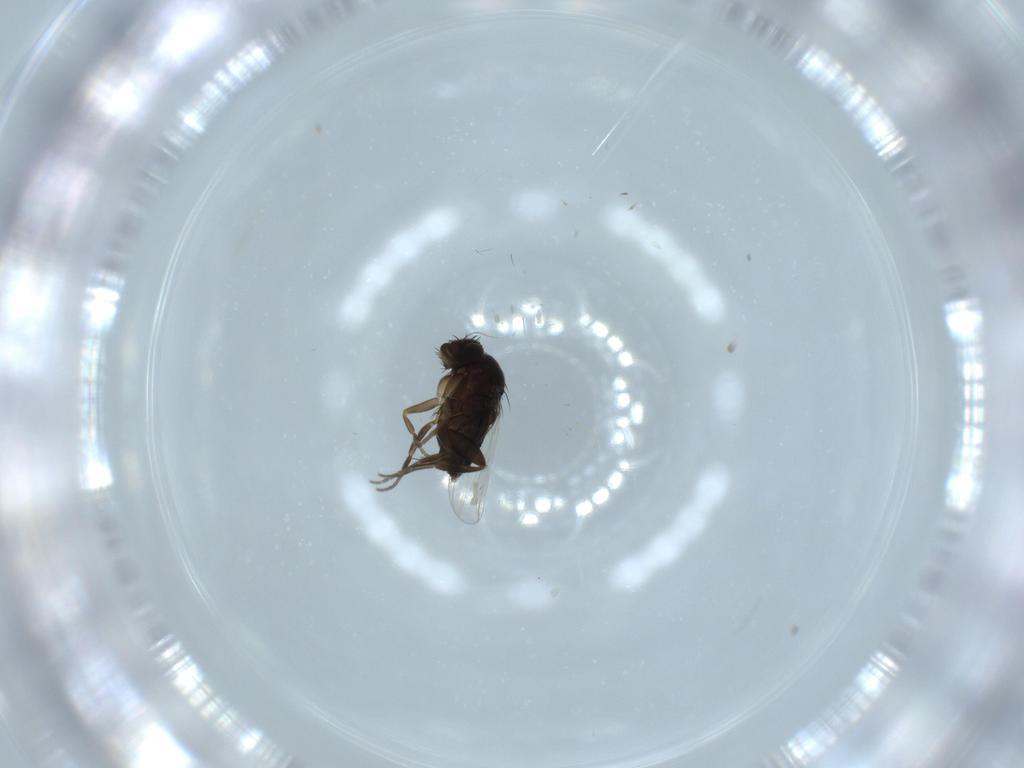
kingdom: Animalia
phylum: Arthropoda
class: Insecta
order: Diptera
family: Phoridae
